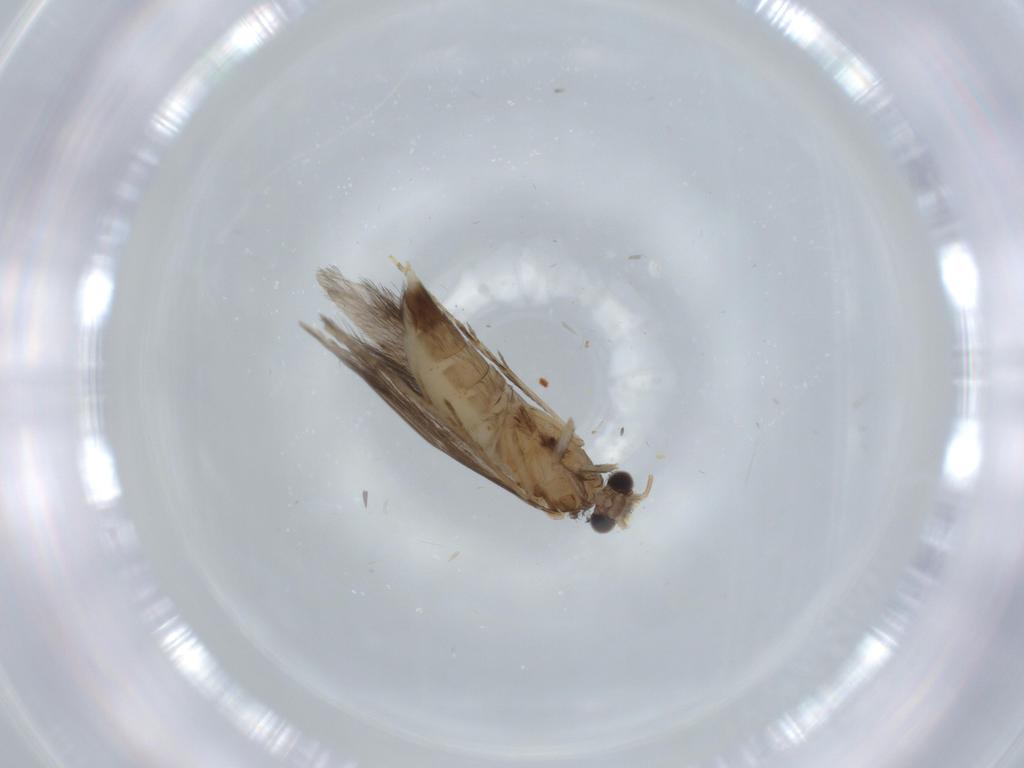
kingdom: Animalia
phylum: Arthropoda
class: Insecta
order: Trichoptera
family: Hydroptilidae
